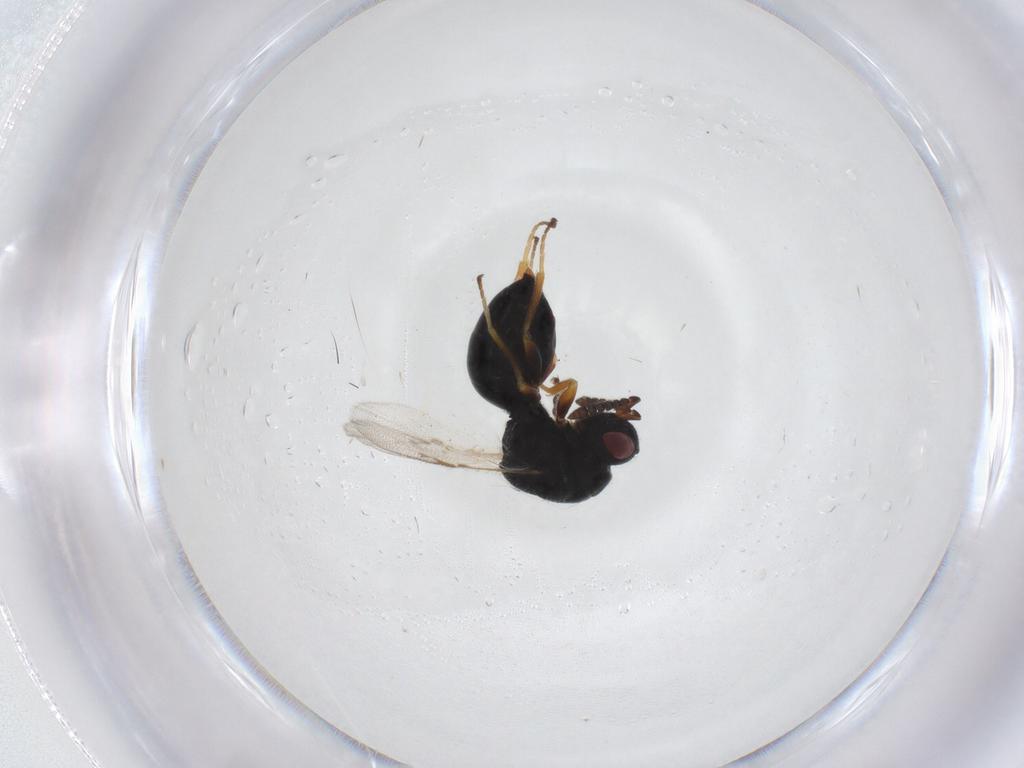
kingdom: Animalia
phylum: Arthropoda
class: Insecta
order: Hymenoptera
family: Eurytomidae
